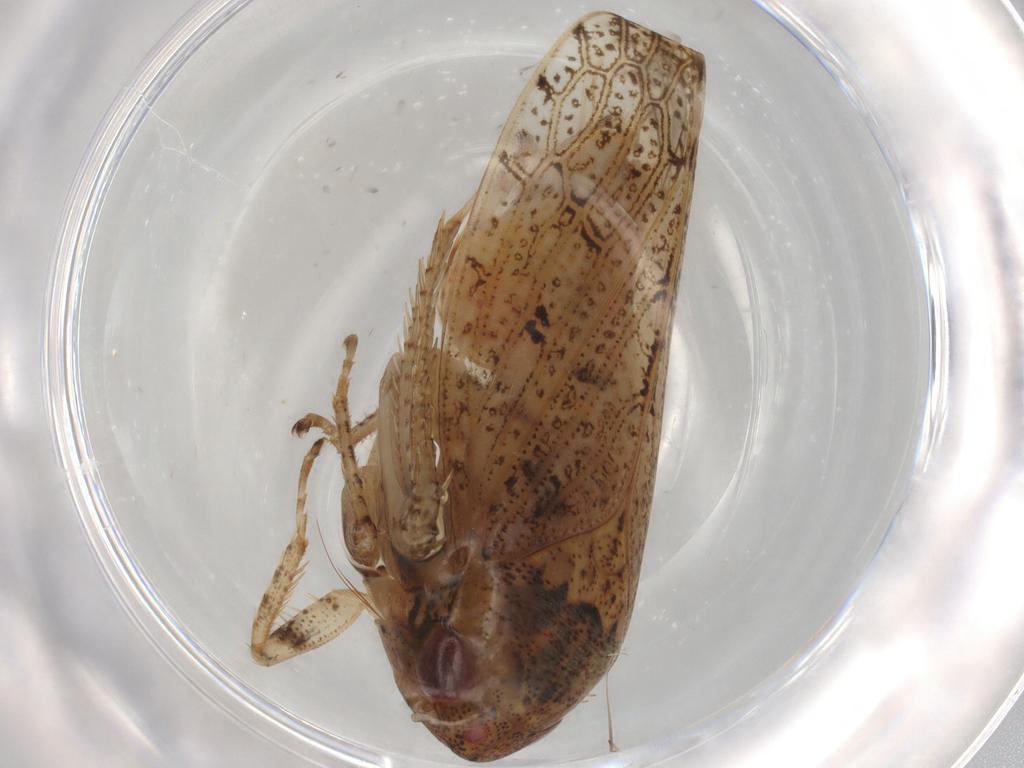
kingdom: Animalia
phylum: Arthropoda
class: Insecta
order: Hemiptera
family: Cicadellidae
